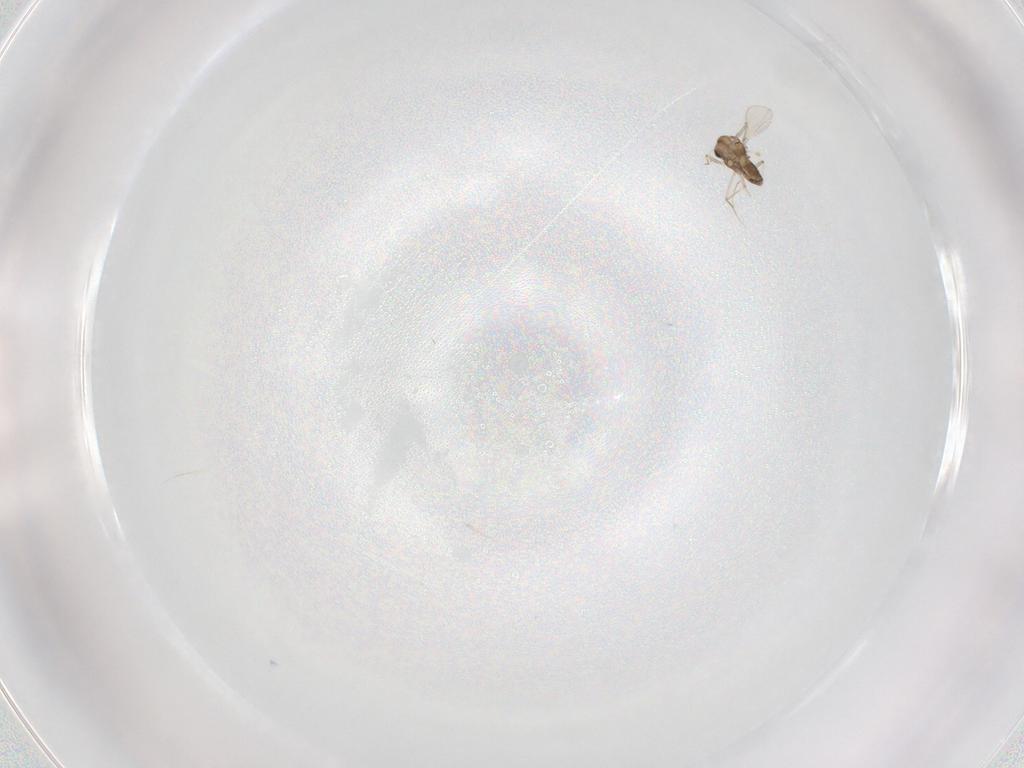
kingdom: Animalia
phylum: Arthropoda
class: Insecta
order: Diptera
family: Chironomidae
